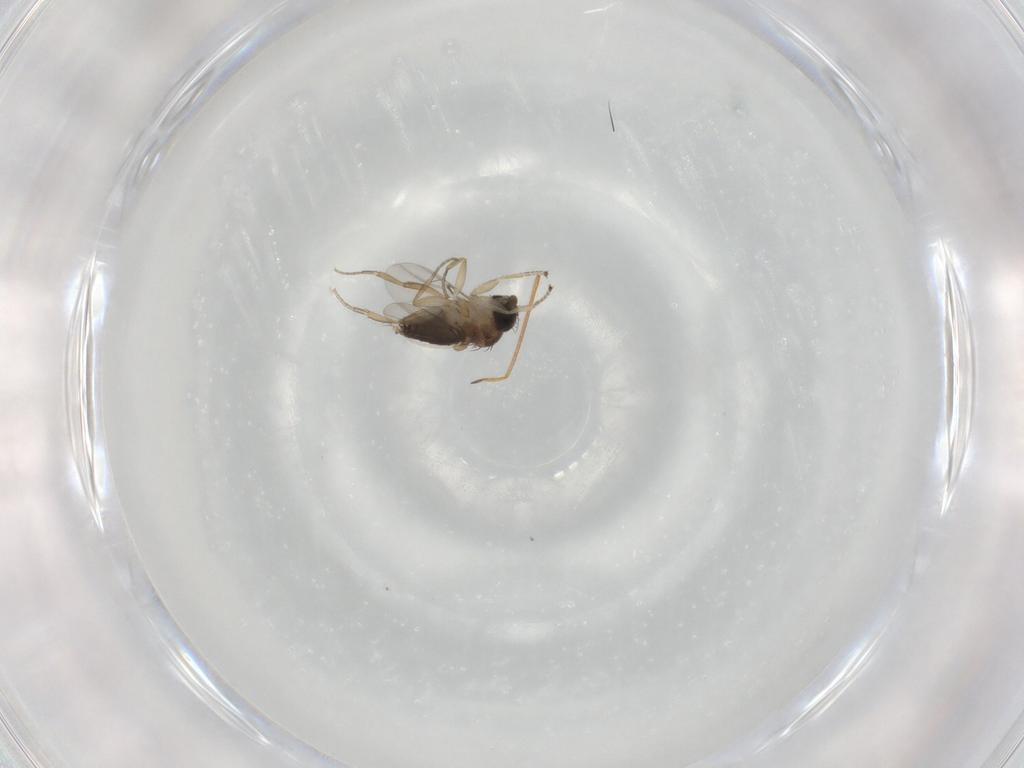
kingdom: Animalia
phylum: Arthropoda
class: Insecta
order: Diptera
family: Phoridae
